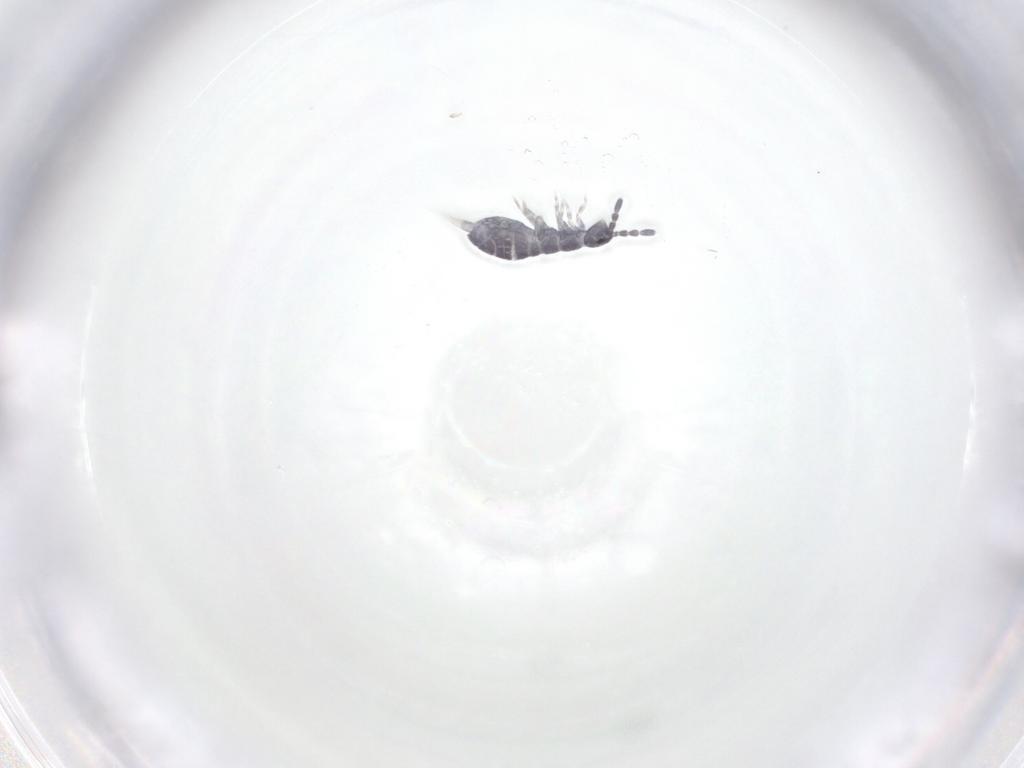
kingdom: Animalia
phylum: Arthropoda
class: Collembola
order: Entomobryomorpha
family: Isotomidae
